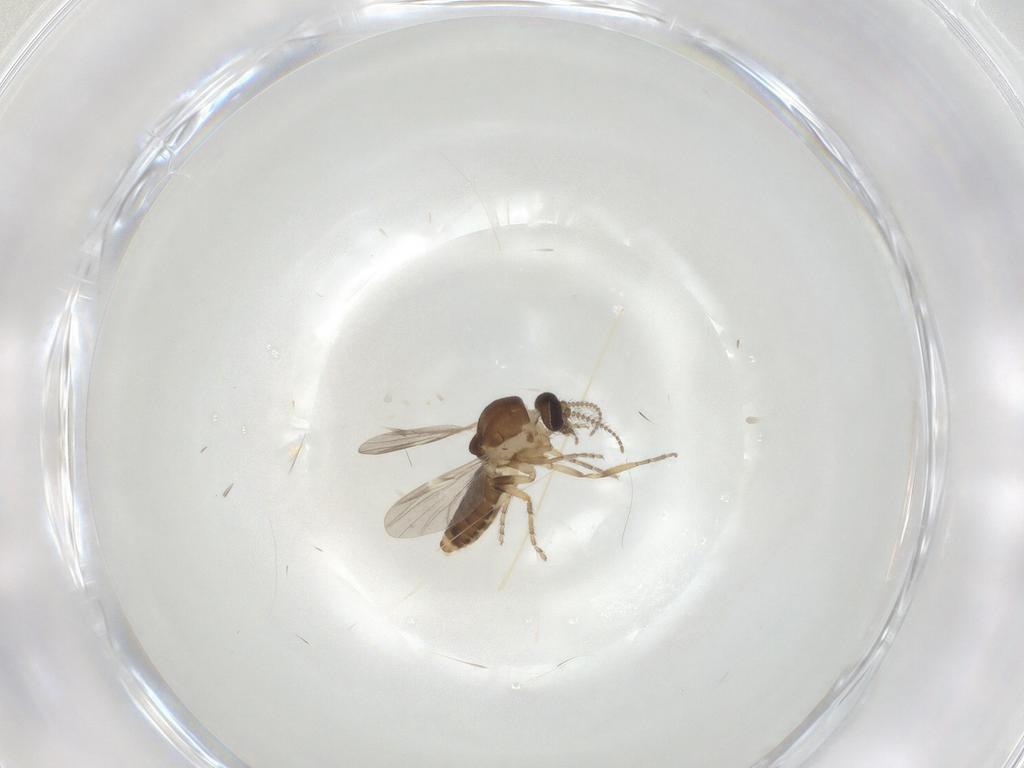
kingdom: Animalia
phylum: Arthropoda
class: Insecta
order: Diptera
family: Ceratopogonidae
